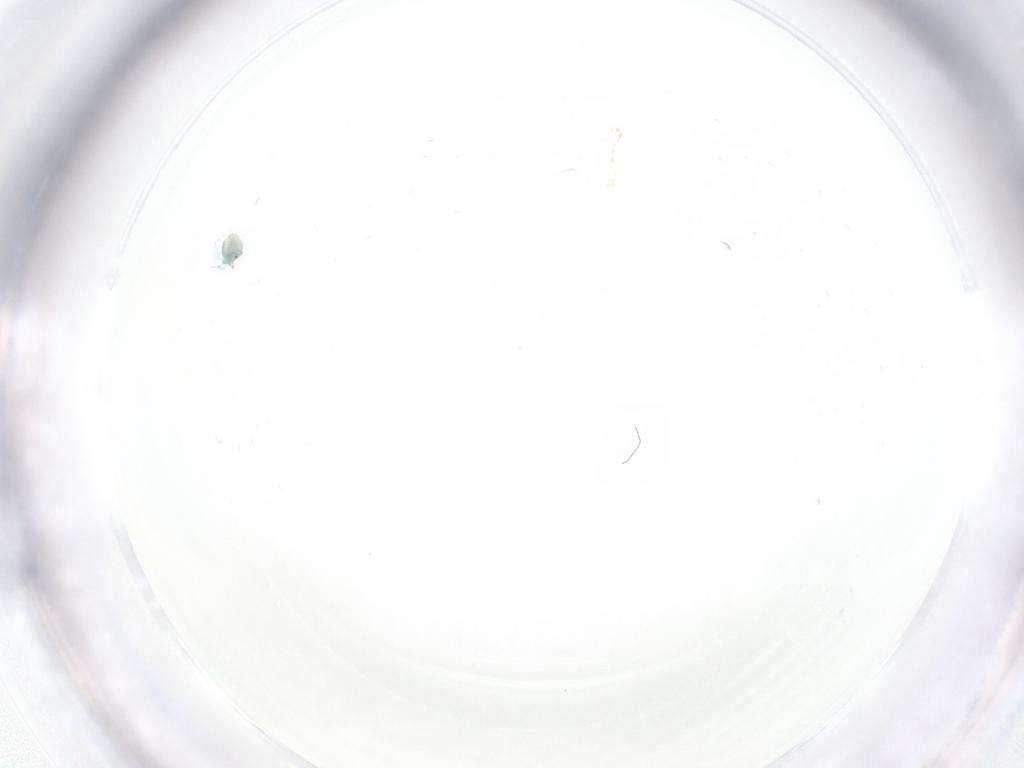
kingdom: Animalia
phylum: Arthropoda
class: Arachnida
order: Trombidiformes
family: Arrenuridae
